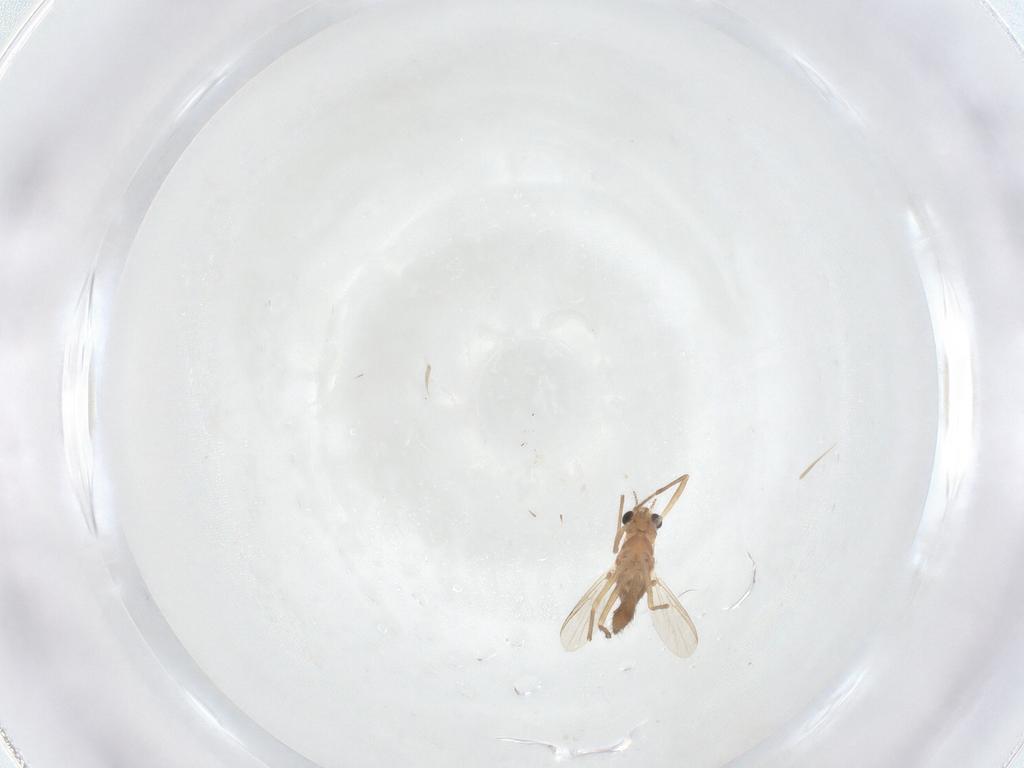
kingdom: Animalia
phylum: Arthropoda
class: Insecta
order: Diptera
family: Chironomidae
